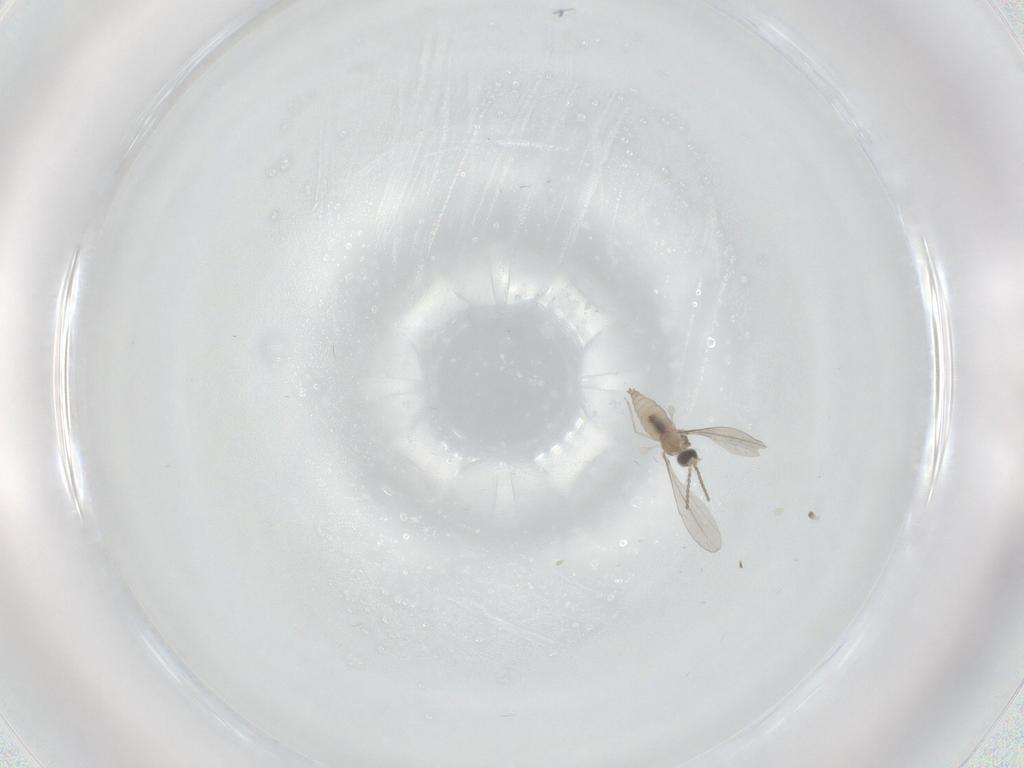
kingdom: Animalia
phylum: Arthropoda
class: Insecta
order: Diptera
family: Cecidomyiidae
